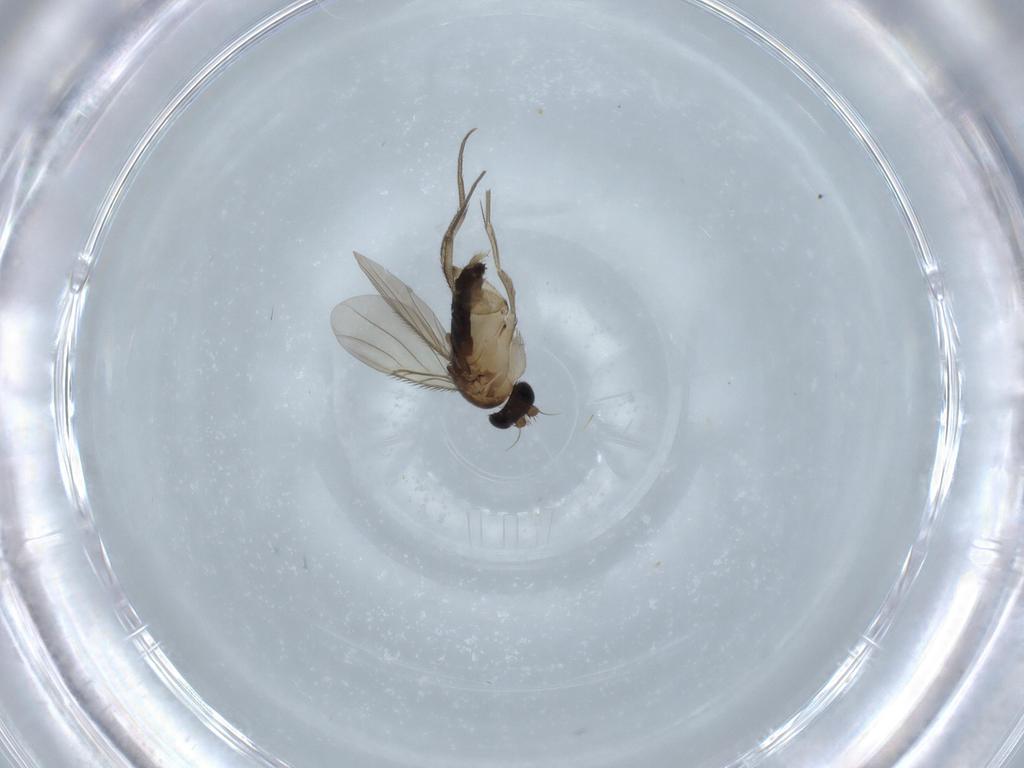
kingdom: Animalia
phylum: Arthropoda
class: Insecta
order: Diptera
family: Phoridae
